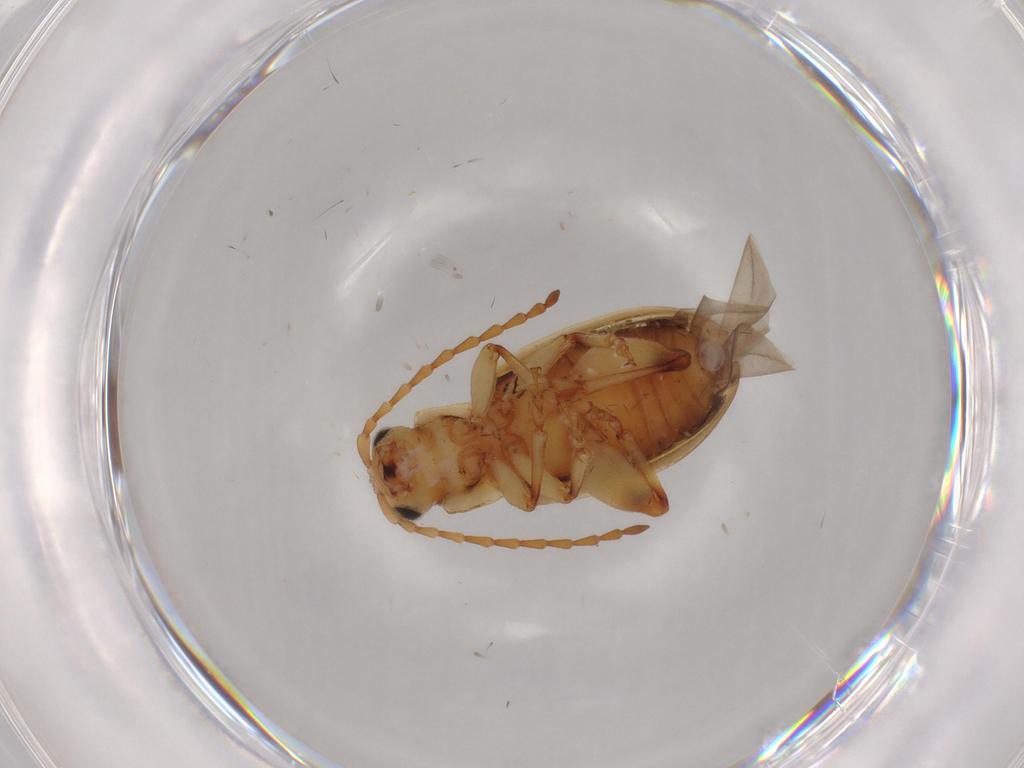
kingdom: Animalia
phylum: Arthropoda
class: Insecta
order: Coleoptera
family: Chrysomelidae
